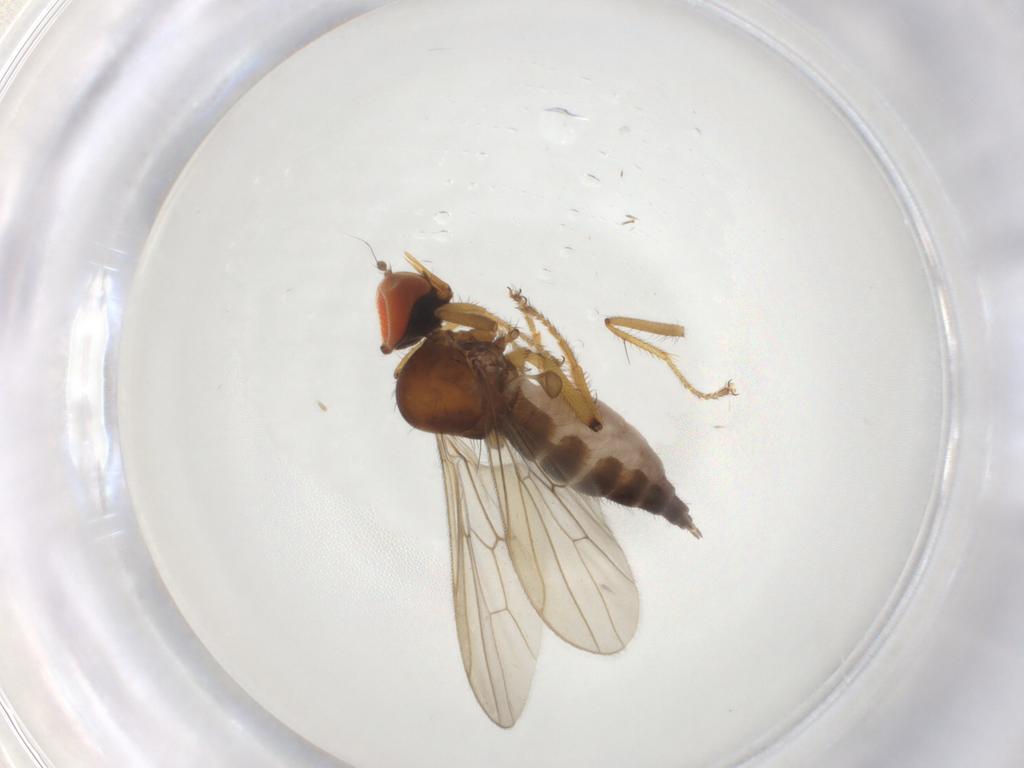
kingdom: Animalia
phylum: Arthropoda
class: Insecta
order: Diptera
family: Hybotidae
